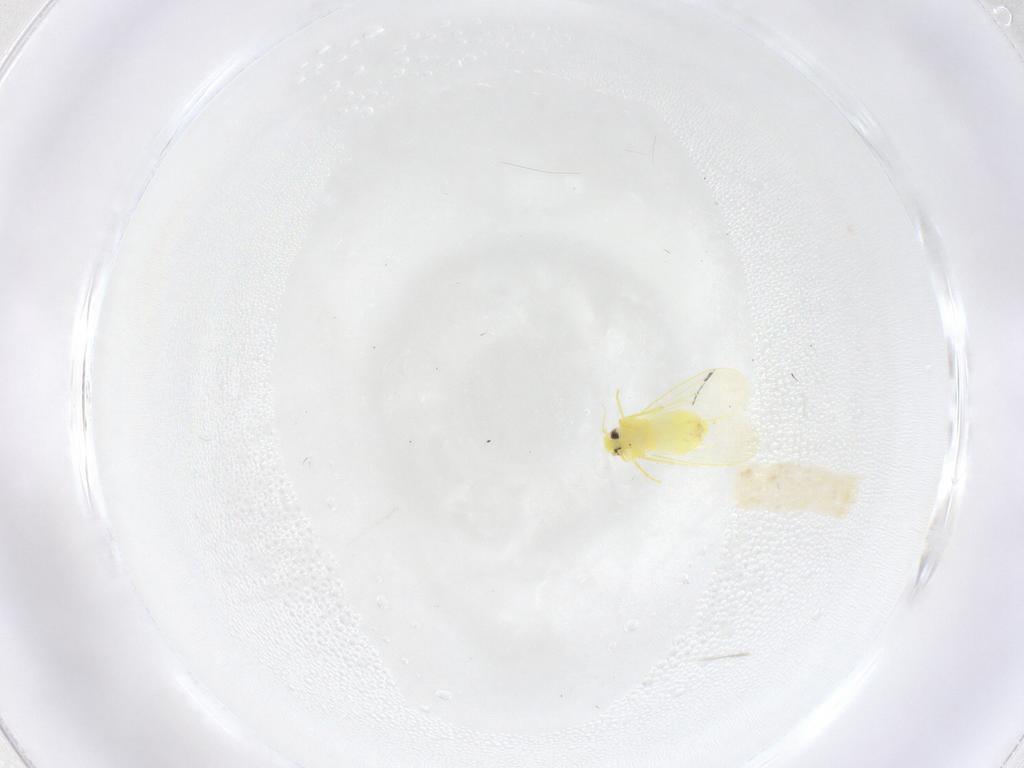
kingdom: Animalia
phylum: Arthropoda
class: Insecta
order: Hemiptera
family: Aleyrodidae
